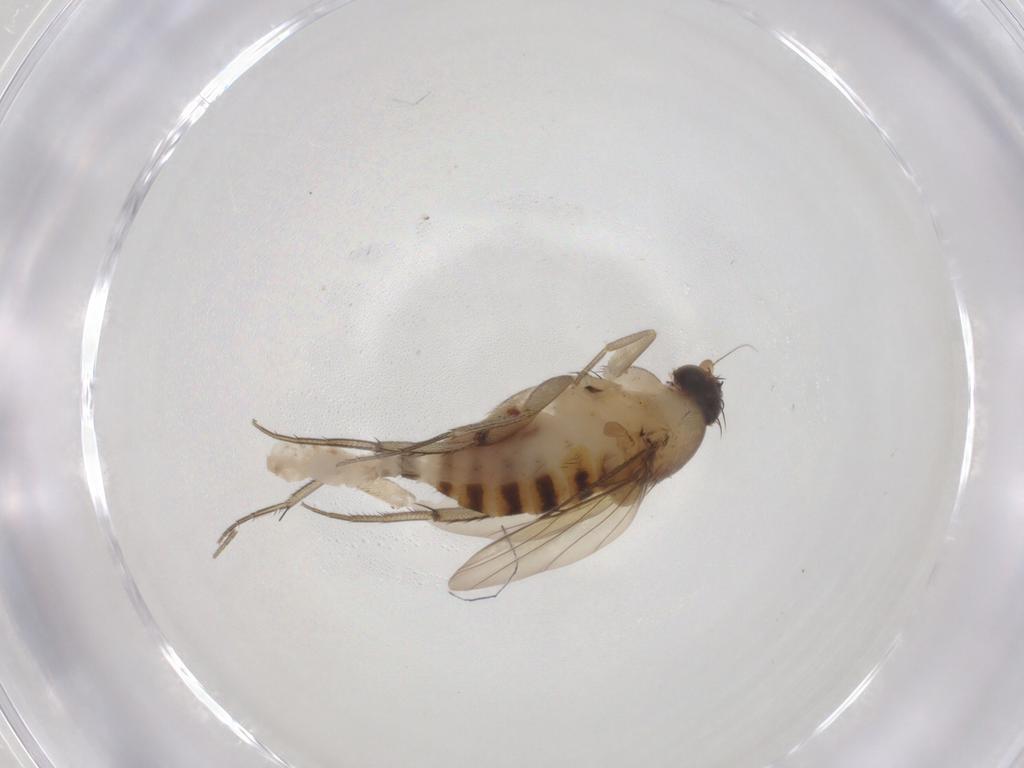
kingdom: Animalia
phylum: Arthropoda
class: Insecta
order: Diptera
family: Phoridae
